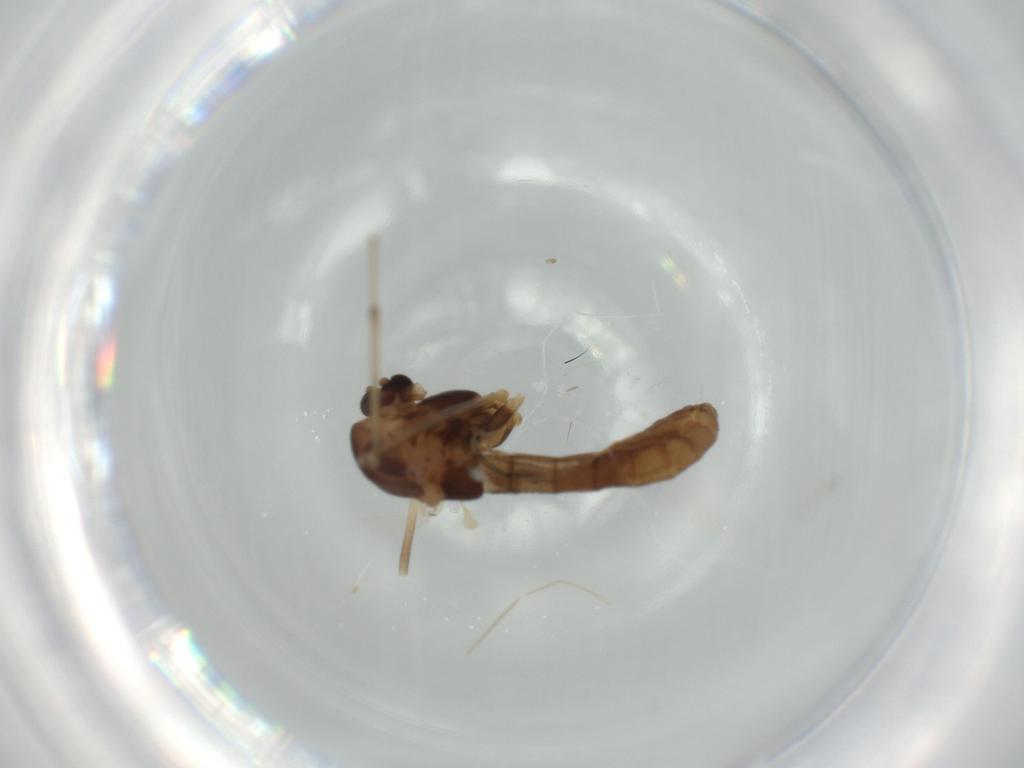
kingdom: Animalia
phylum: Arthropoda
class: Insecta
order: Diptera
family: Chironomidae
